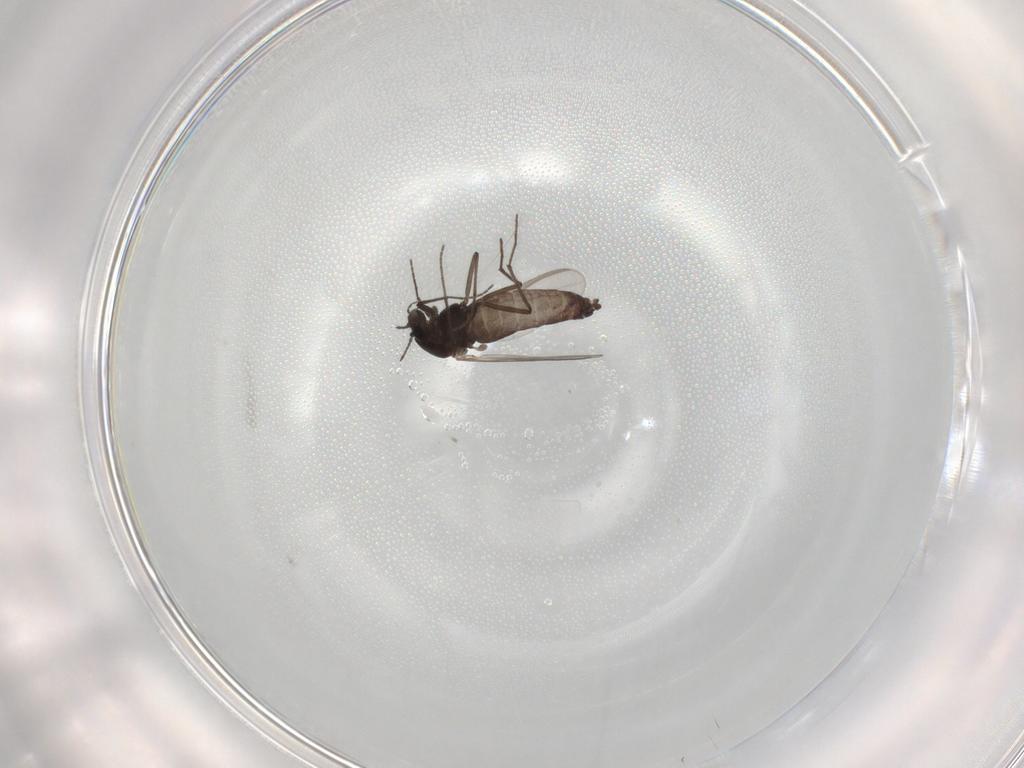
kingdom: Animalia
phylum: Arthropoda
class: Insecta
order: Diptera
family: Chironomidae
